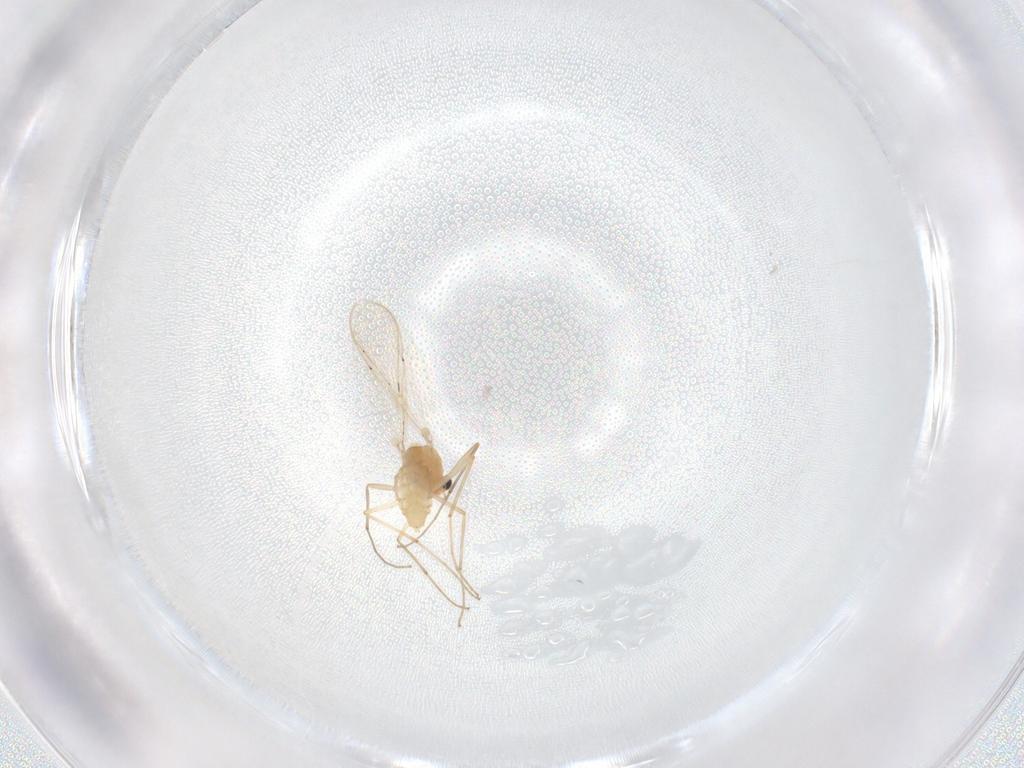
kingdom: Animalia
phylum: Arthropoda
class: Insecta
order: Diptera
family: Chironomidae
